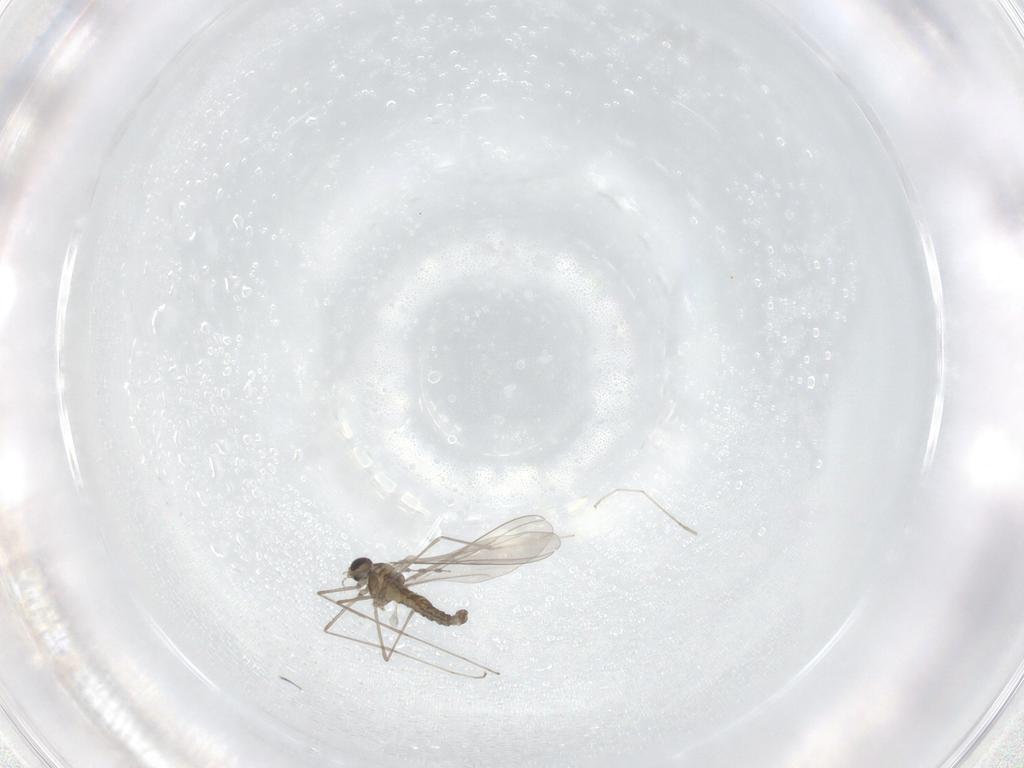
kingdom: Animalia
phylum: Arthropoda
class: Insecta
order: Diptera
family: Cecidomyiidae
